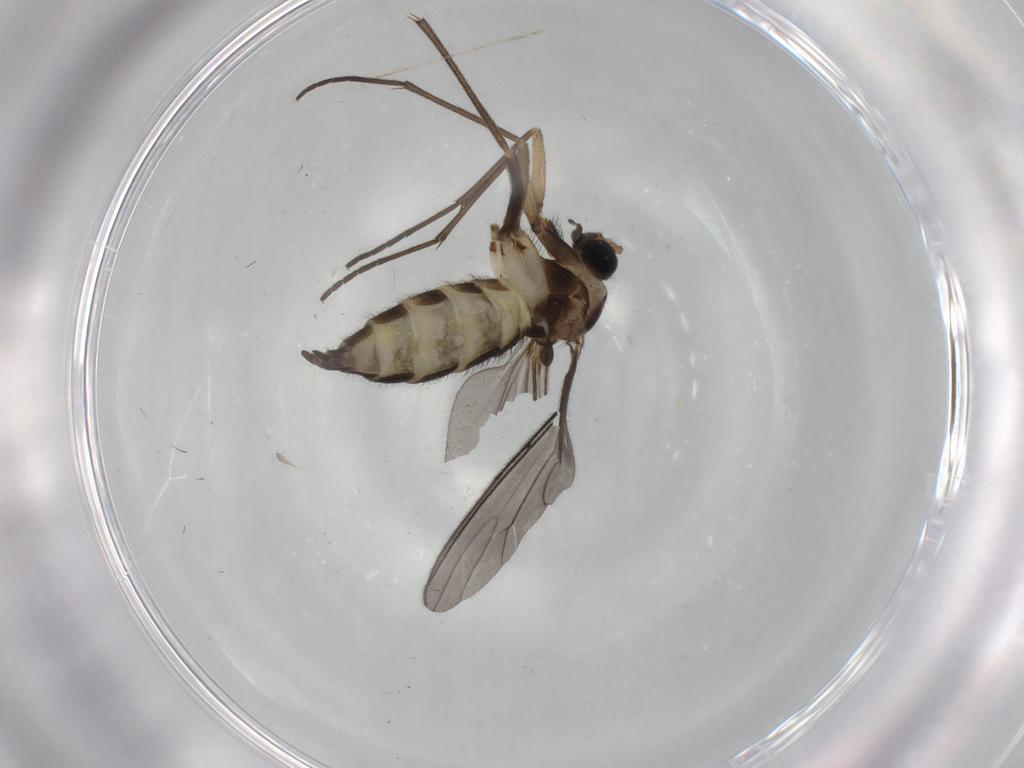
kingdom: Animalia
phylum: Arthropoda
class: Insecta
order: Diptera
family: Sciaridae
